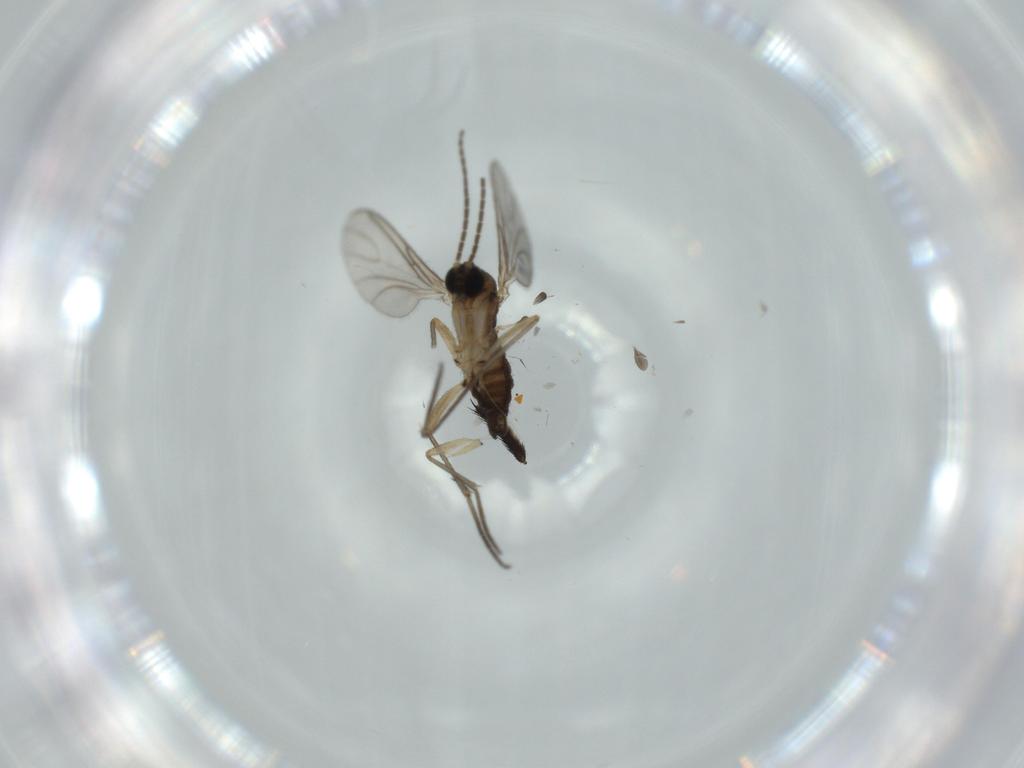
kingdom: Animalia
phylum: Arthropoda
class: Insecta
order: Diptera
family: Sciaridae
